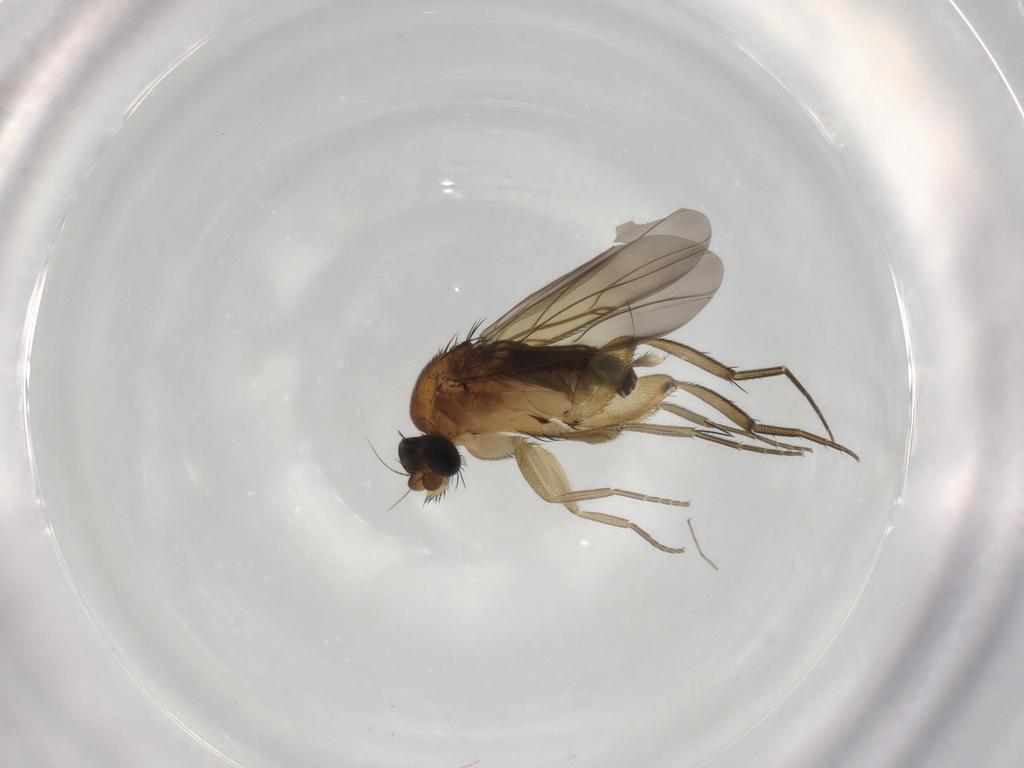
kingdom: Animalia
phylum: Arthropoda
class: Insecta
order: Diptera
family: Phoridae
